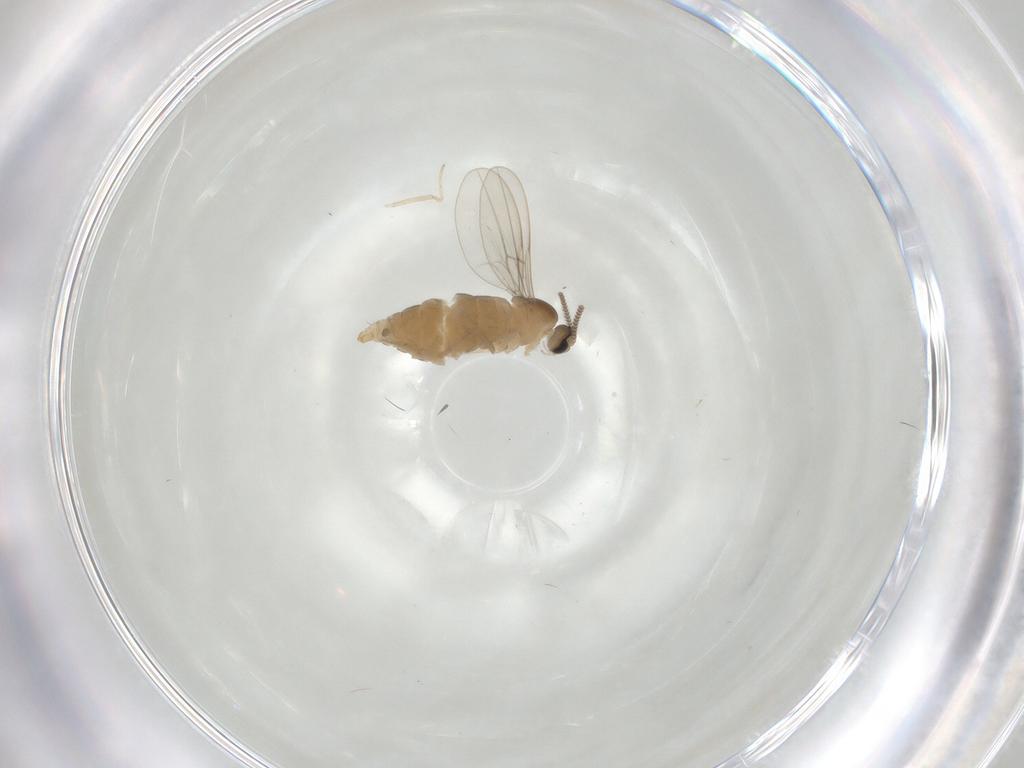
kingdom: Animalia
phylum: Arthropoda
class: Insecta
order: Diptera
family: Cecidomyiidae
